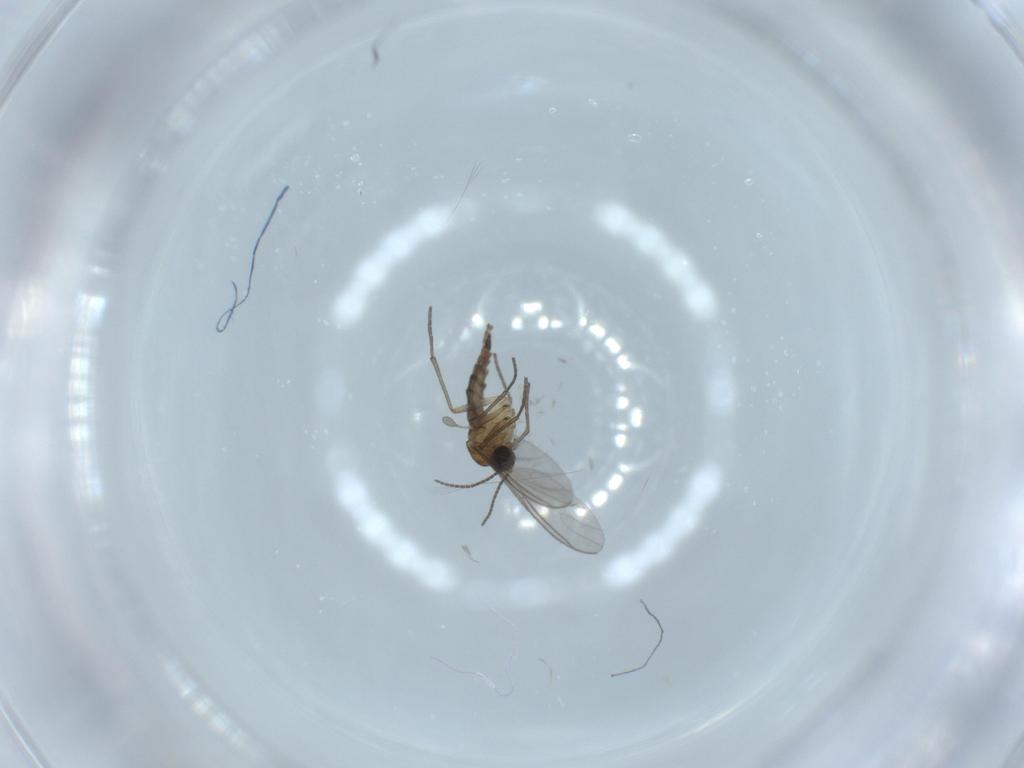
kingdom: Animalia
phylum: Arthropoda
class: Insecta
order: Diptera
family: Sciaridae
